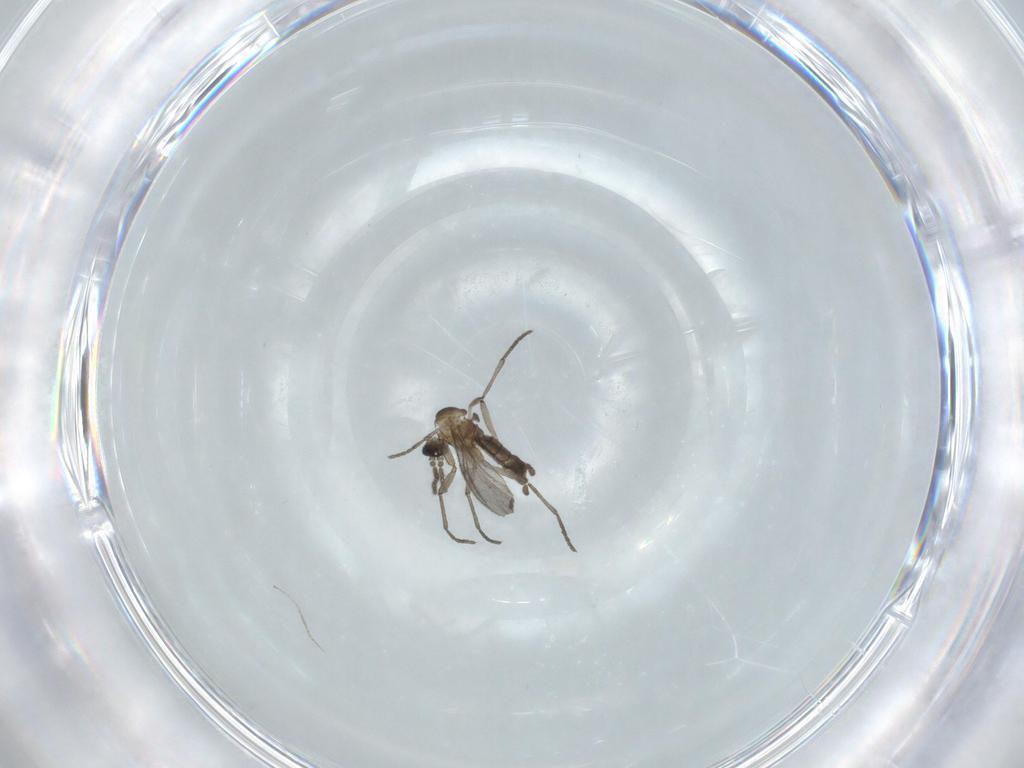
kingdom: Animalia
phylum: Arthropoda
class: Insecta
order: Diptera
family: Sciaridae
